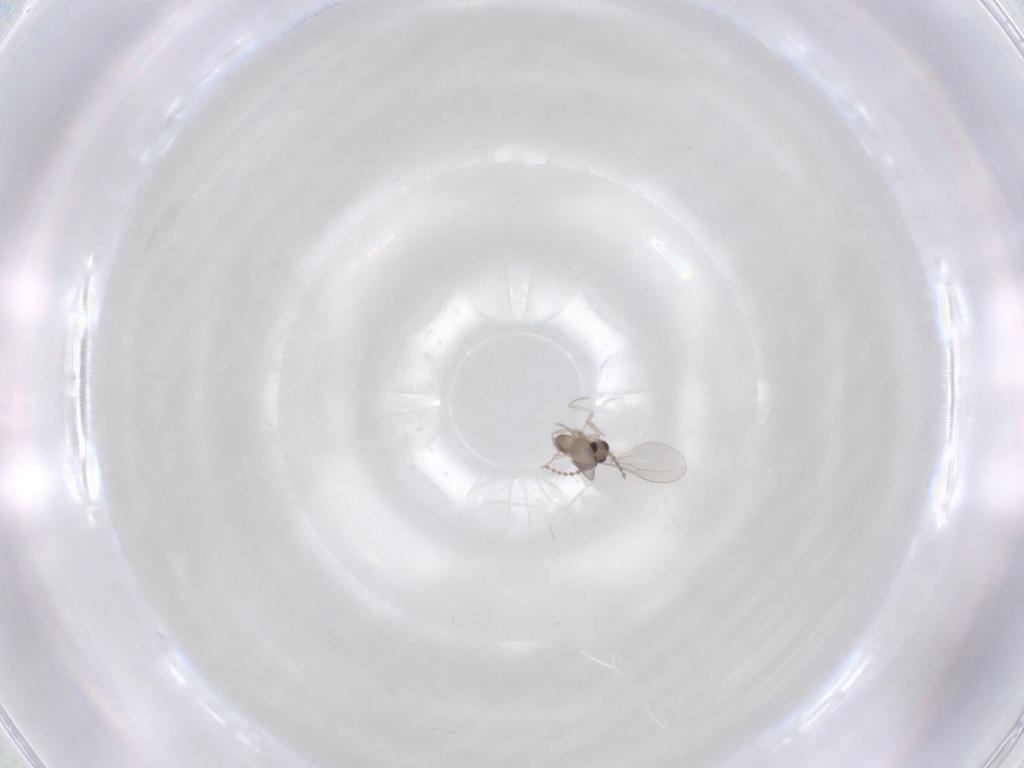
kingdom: Animalia
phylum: Arthropoda
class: Insecta
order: Diptera
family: Cecidomyiidae
